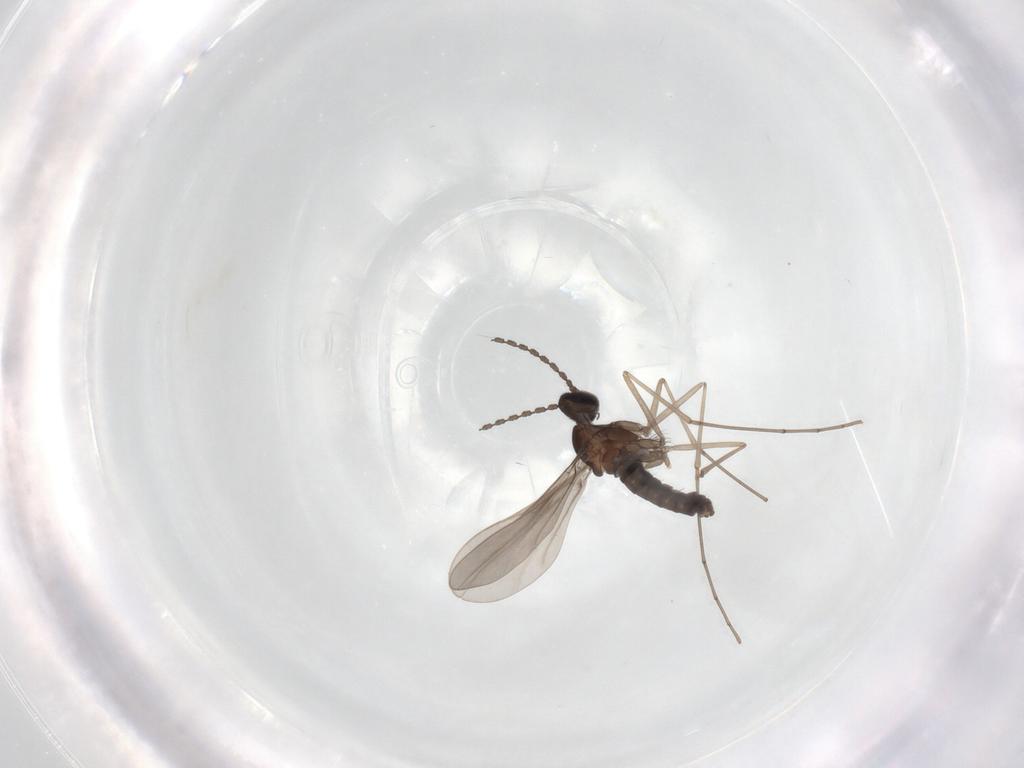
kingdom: Animalia
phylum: Arthropoda
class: Insecta
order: Diptera
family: Cecidomyiidae
